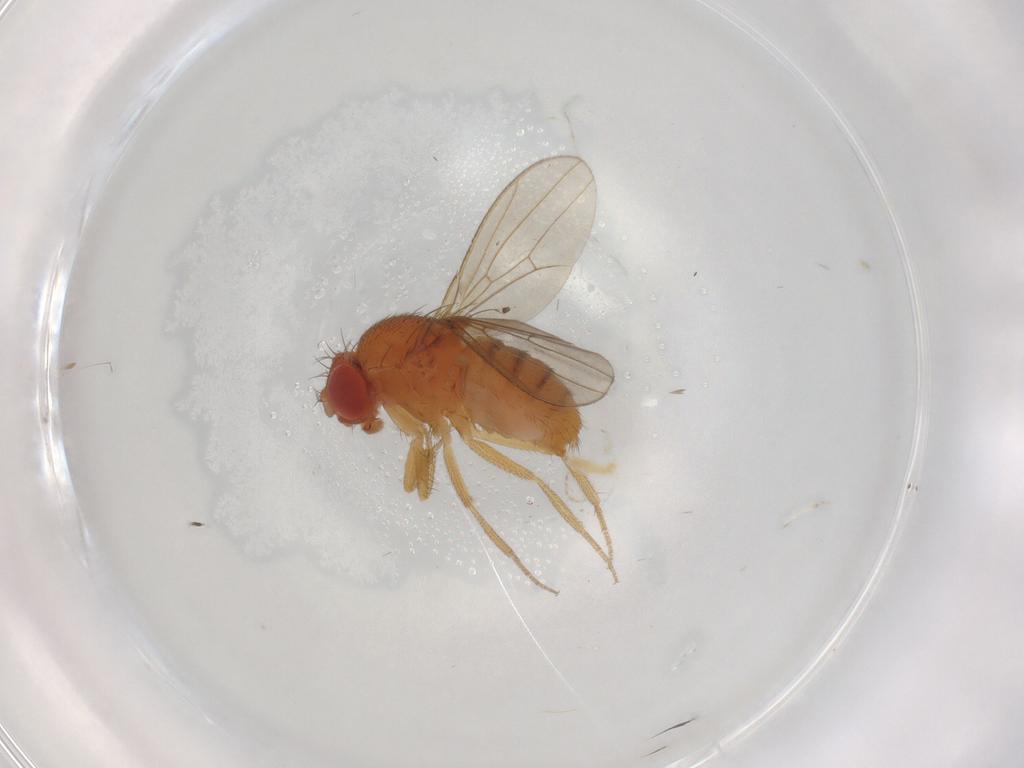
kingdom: Animalia
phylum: Arthropoda
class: Insecta
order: Diptera
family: Drosophilidae
